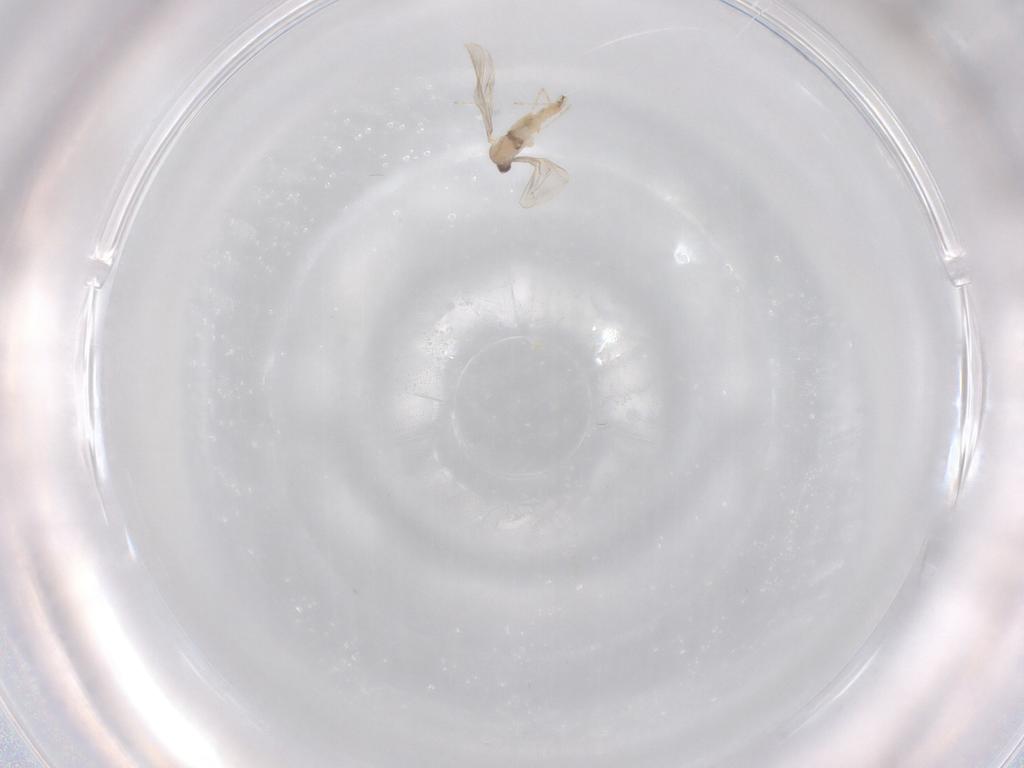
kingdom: Animalia
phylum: Arthropoda
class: Insecta
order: Diptera
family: Cecidomyiidae
